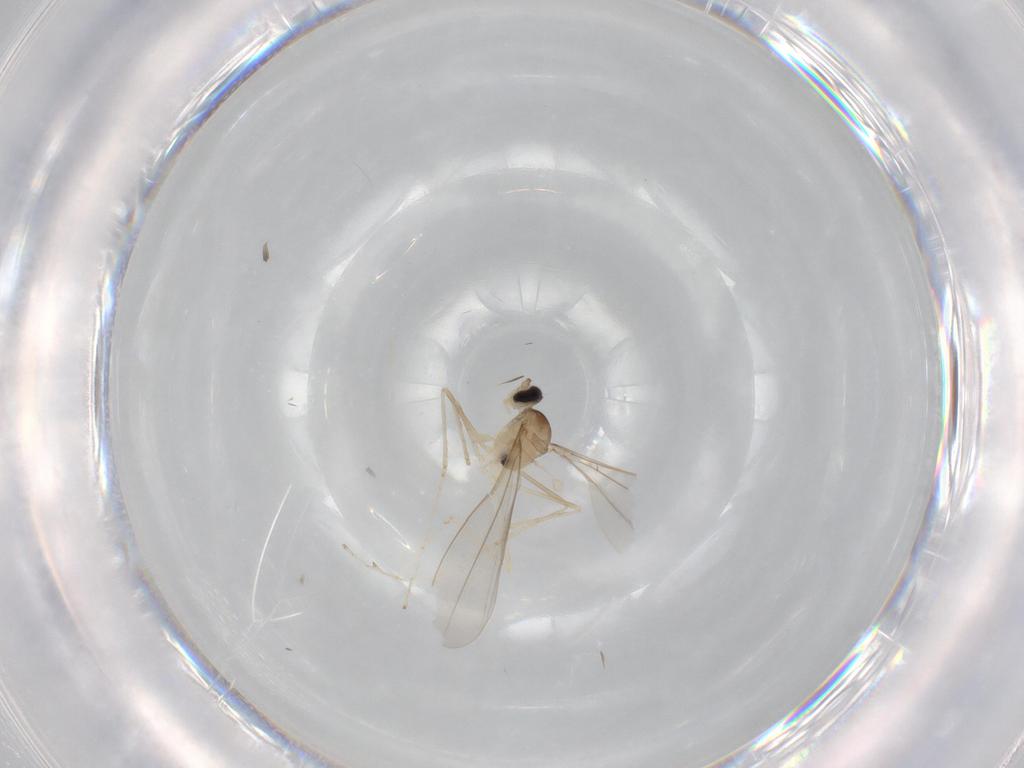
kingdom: Animalia
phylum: Arthropoda
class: Insecta
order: Diptera
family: Cecidomyiidae
